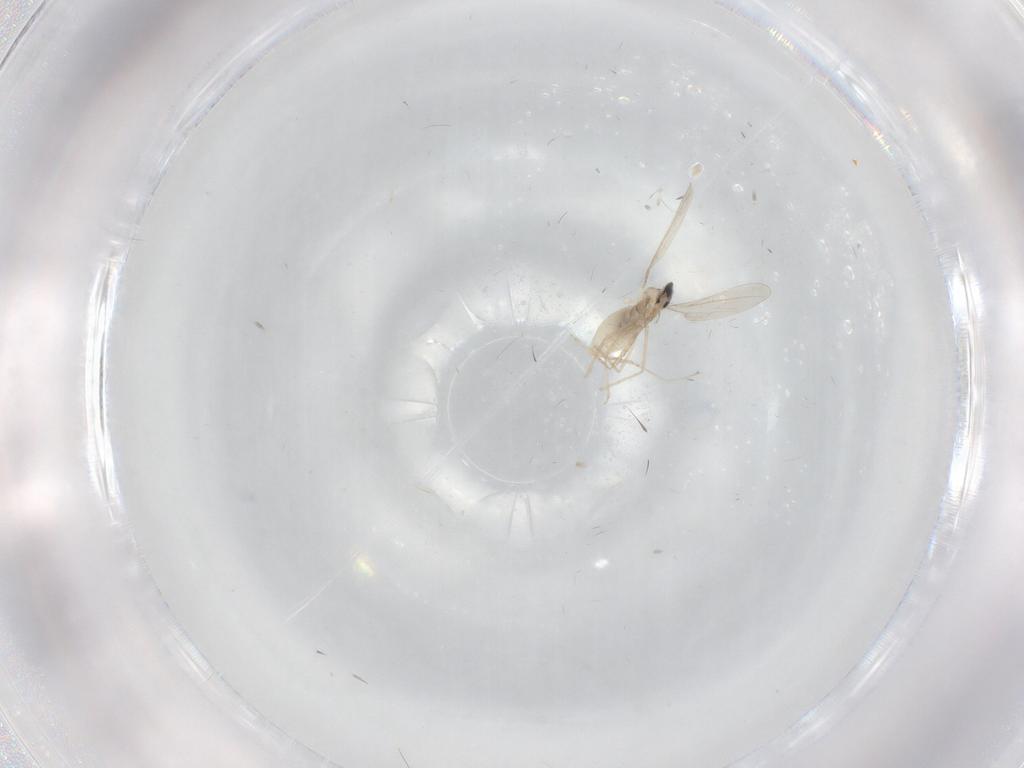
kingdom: Animalia
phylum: Arthropoda
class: Insecta
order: Diptera
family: Cecidomyiidae
